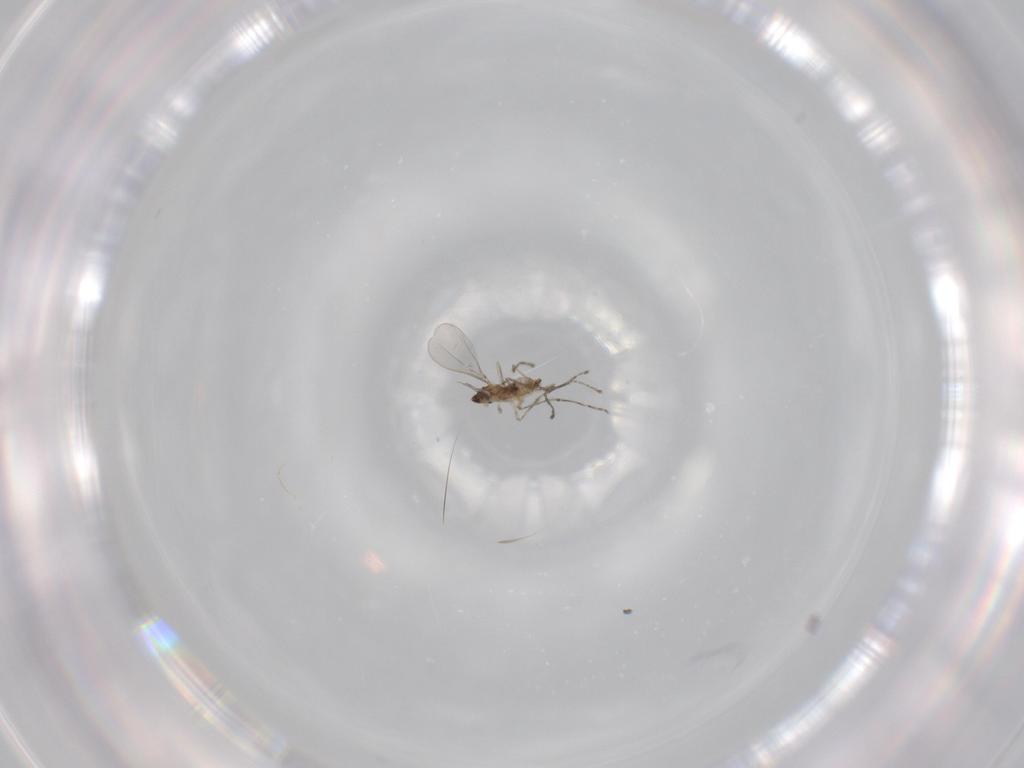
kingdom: Animalia
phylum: Arthropoda
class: Insecta
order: Diptera
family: Cecidomyiidae
